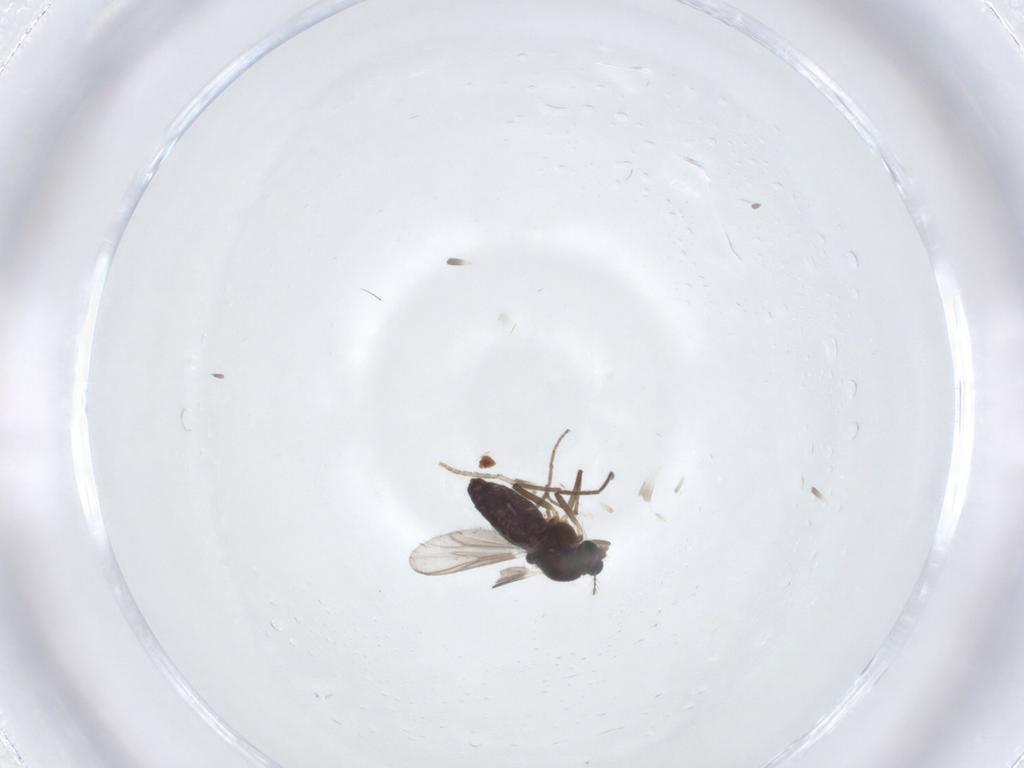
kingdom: Animalia
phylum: Arthropoda
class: Insecta
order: Diptera
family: Chironomidae
